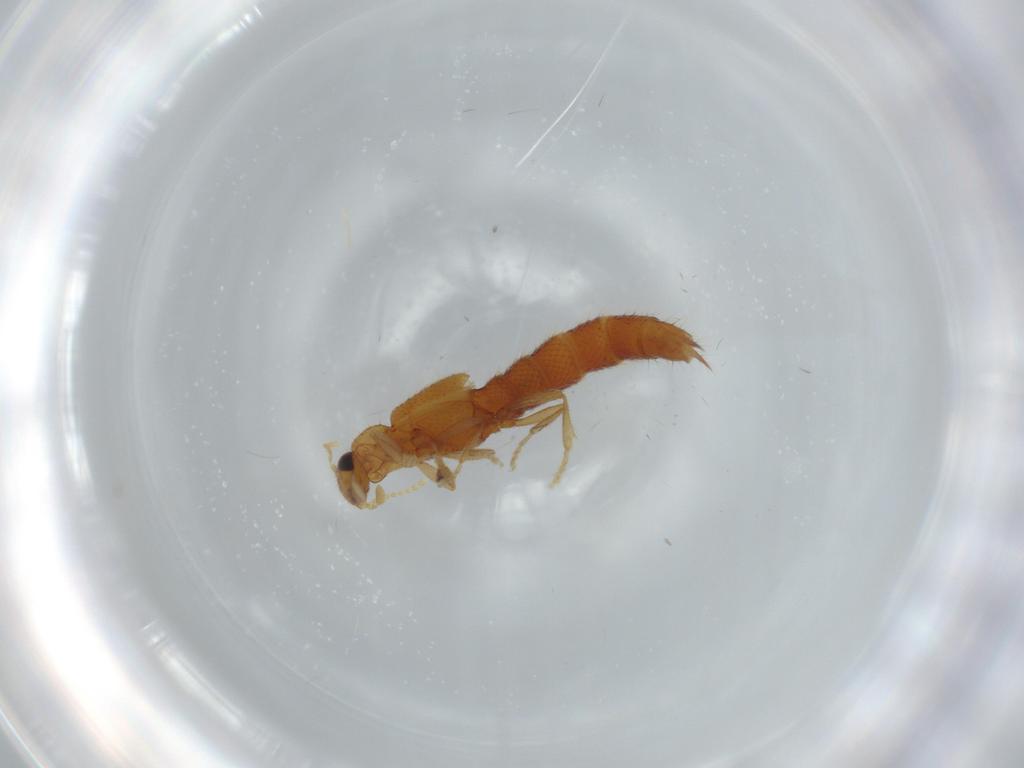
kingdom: Animalia
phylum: Arthropoda
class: Insecta
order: Coleoptera
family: Staphylinidae
